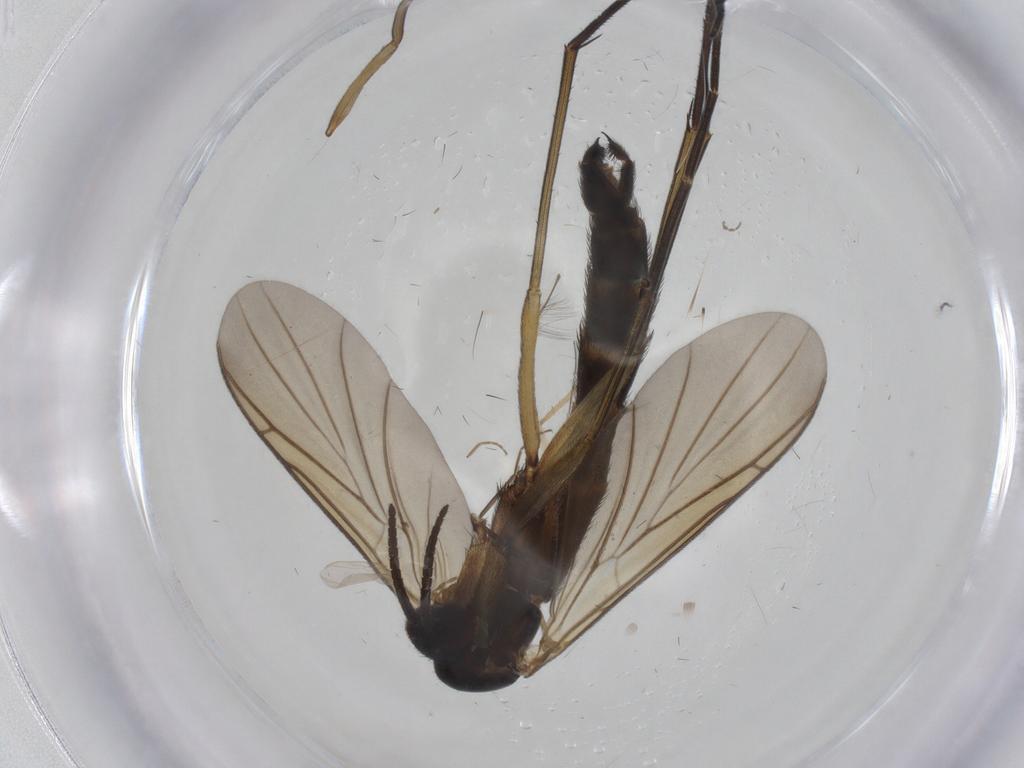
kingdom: Animalia
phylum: Arthropoda
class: Insecta
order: Diptera
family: Keroplatidae
